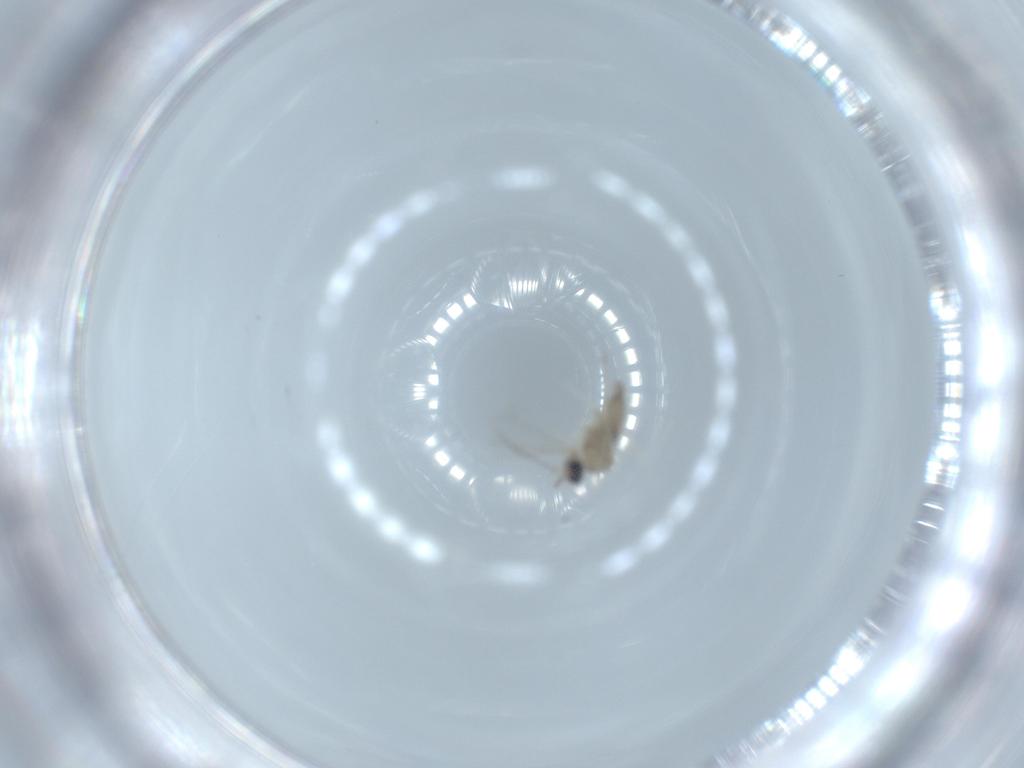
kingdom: Animalia
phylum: Arthropoda
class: Insecta
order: Diptera
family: Cecidomyiidae
